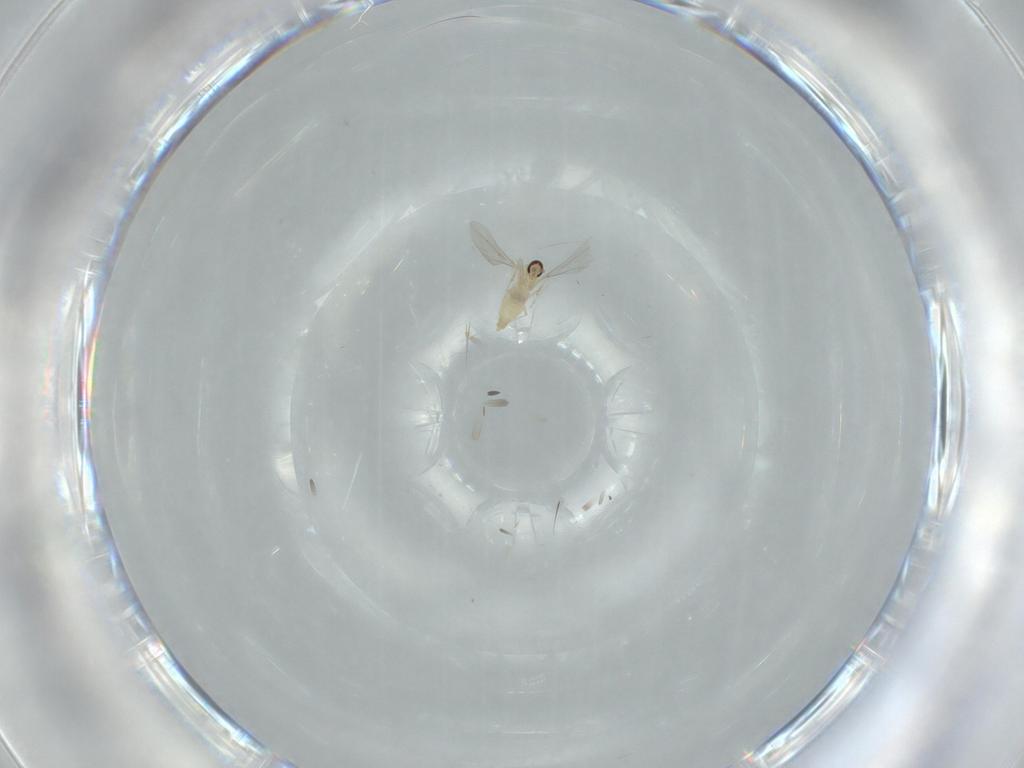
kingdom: Animalia
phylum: Arthropoda
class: Insecta
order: Diptera
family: Cecidomyiidae
